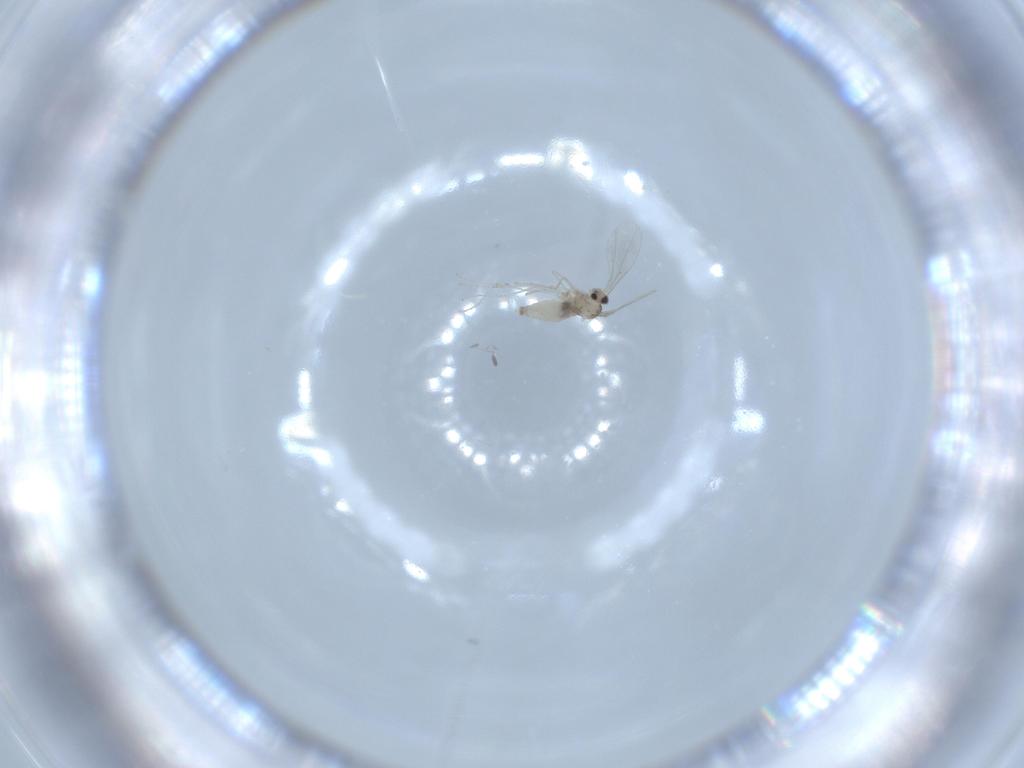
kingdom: Animalia
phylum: Arthropoda
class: Insecta
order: Diptera
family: Cecidomyiidae
